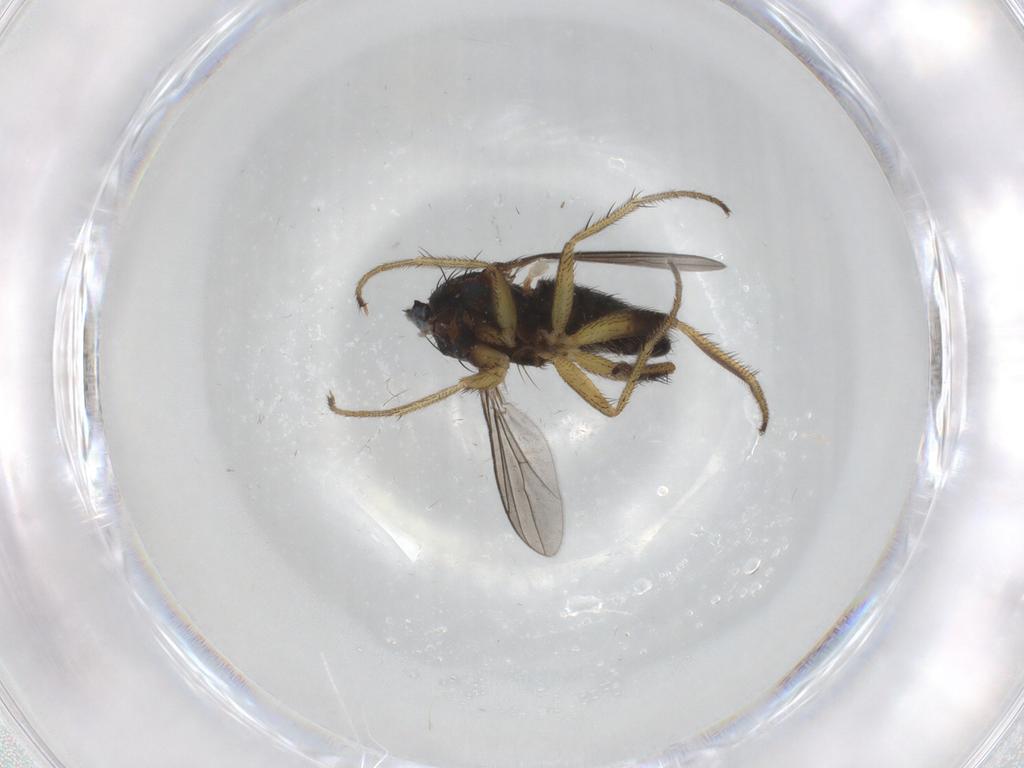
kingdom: Animalia
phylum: Arthropoda
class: Insecta
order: Diptera
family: Dolichopodidae
